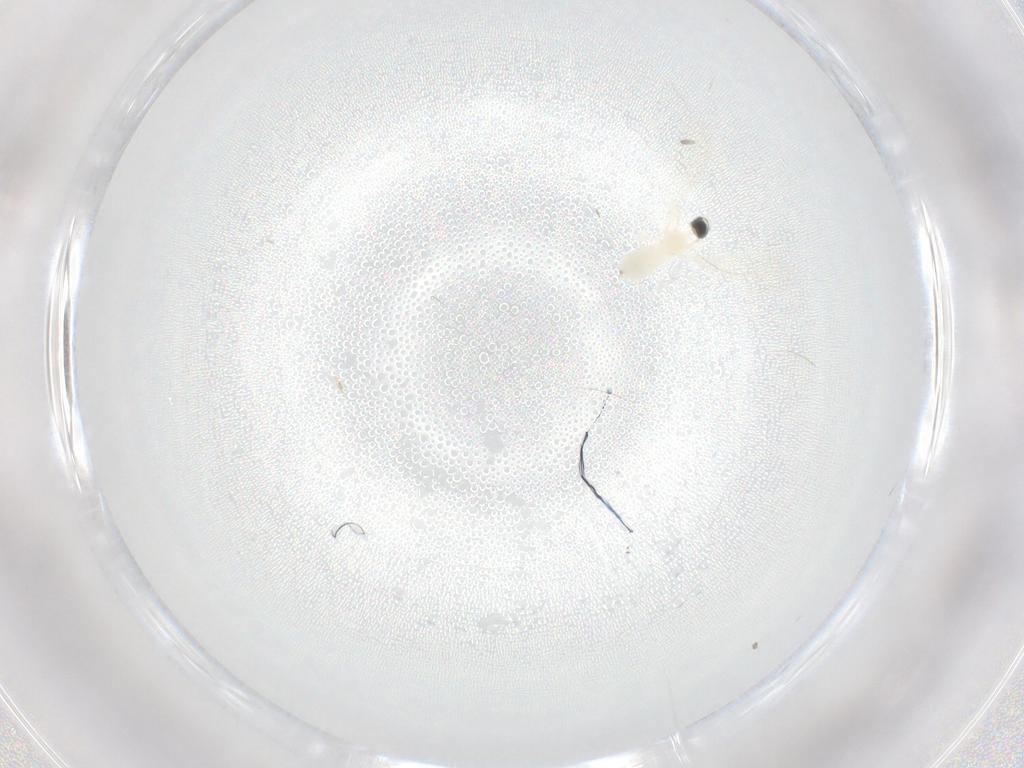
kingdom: Animalia
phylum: Arthropoda
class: Insecta
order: Diptera
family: Cecidomyiidae
